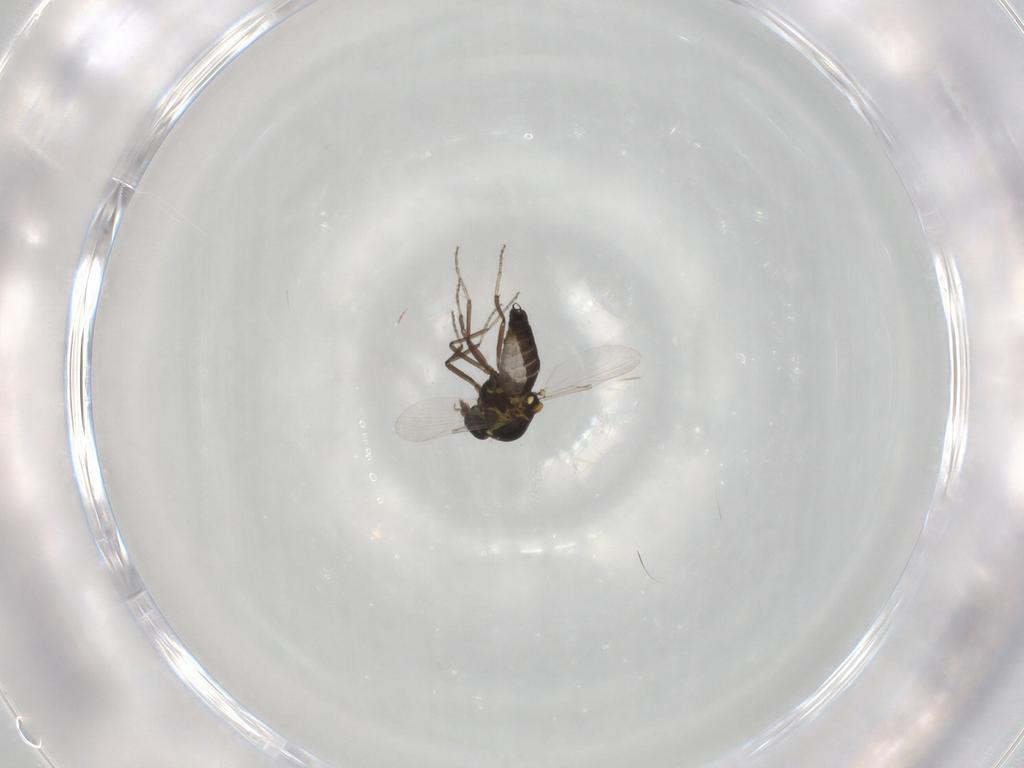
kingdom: Animalia
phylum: Arthropoda
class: Insecta
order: Diptera
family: Ceratopogonidae
